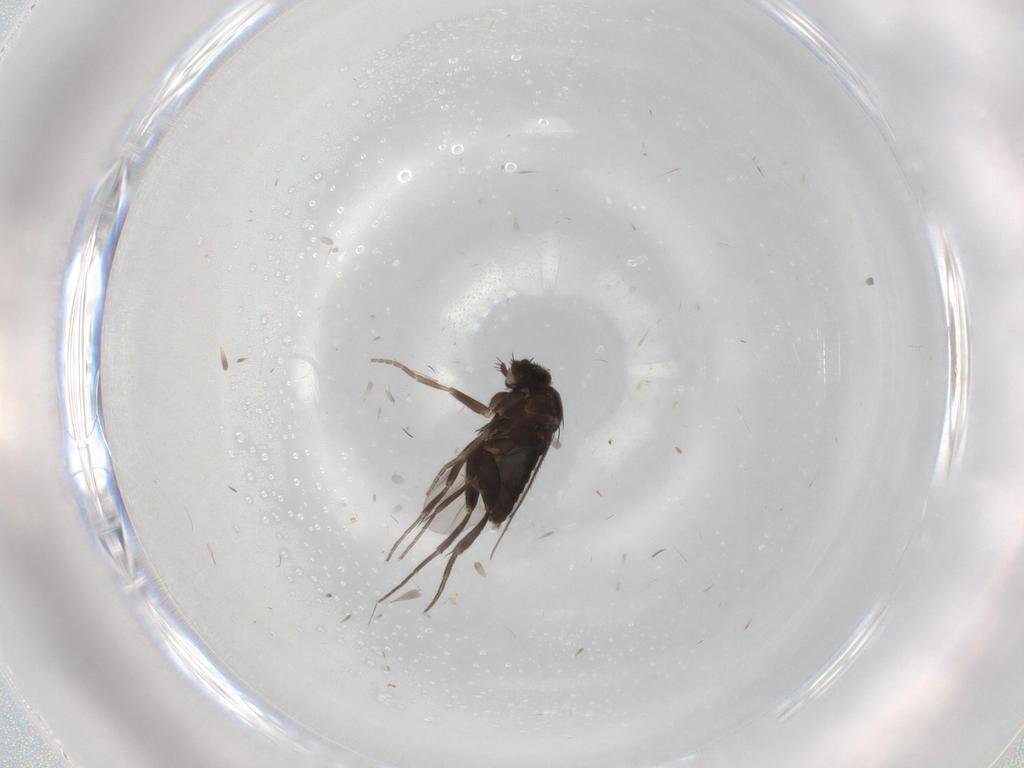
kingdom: Animalia
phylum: Arthropoda
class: Insecta
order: Diptera
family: Phoridae
